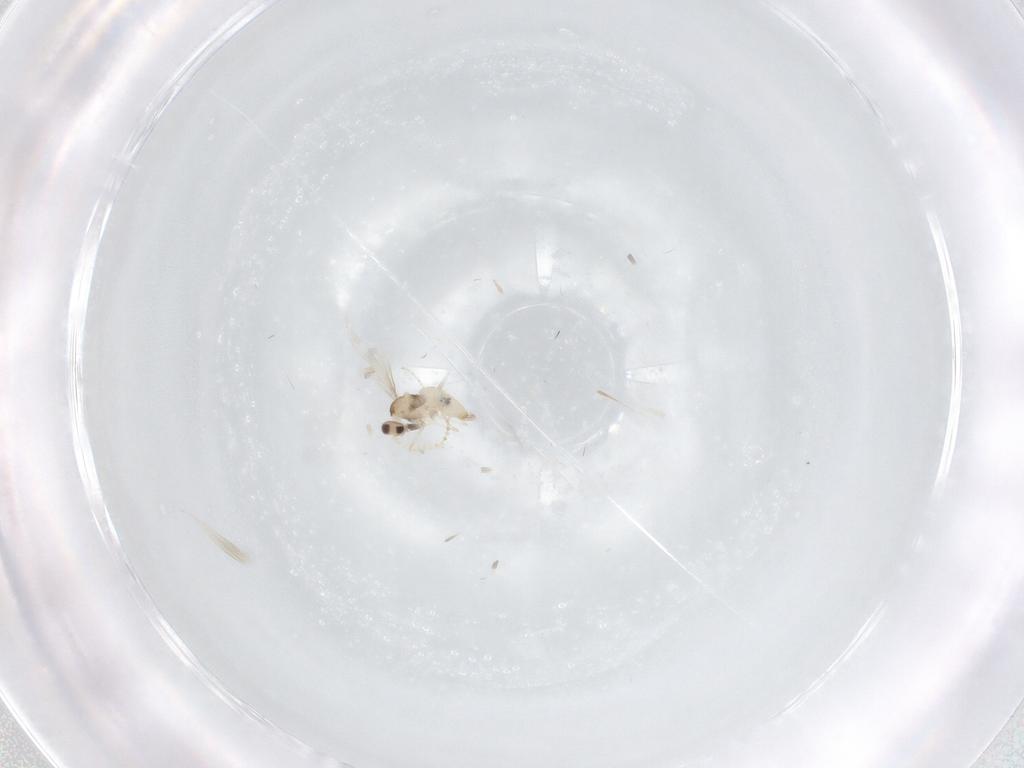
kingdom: Animalia
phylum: Arthropoda
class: Insecta
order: Diptera
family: Cecidomyiidae
